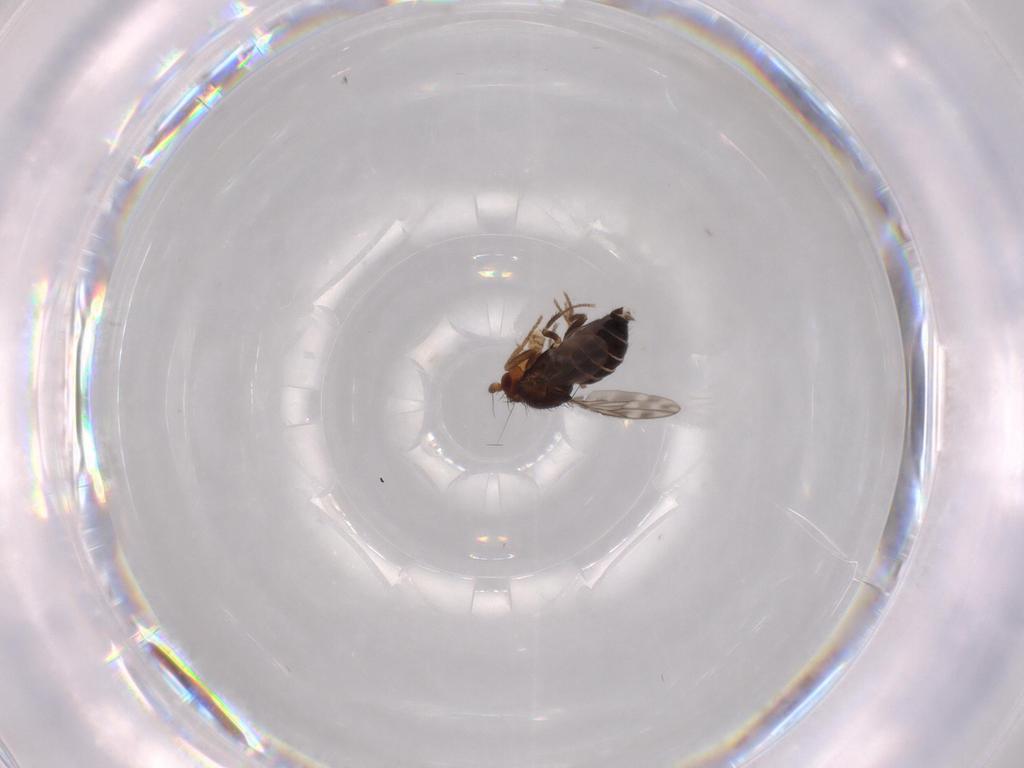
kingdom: Animalia
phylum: Arthropoda
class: Insecta
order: Diptera
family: Sphaeroceridae
